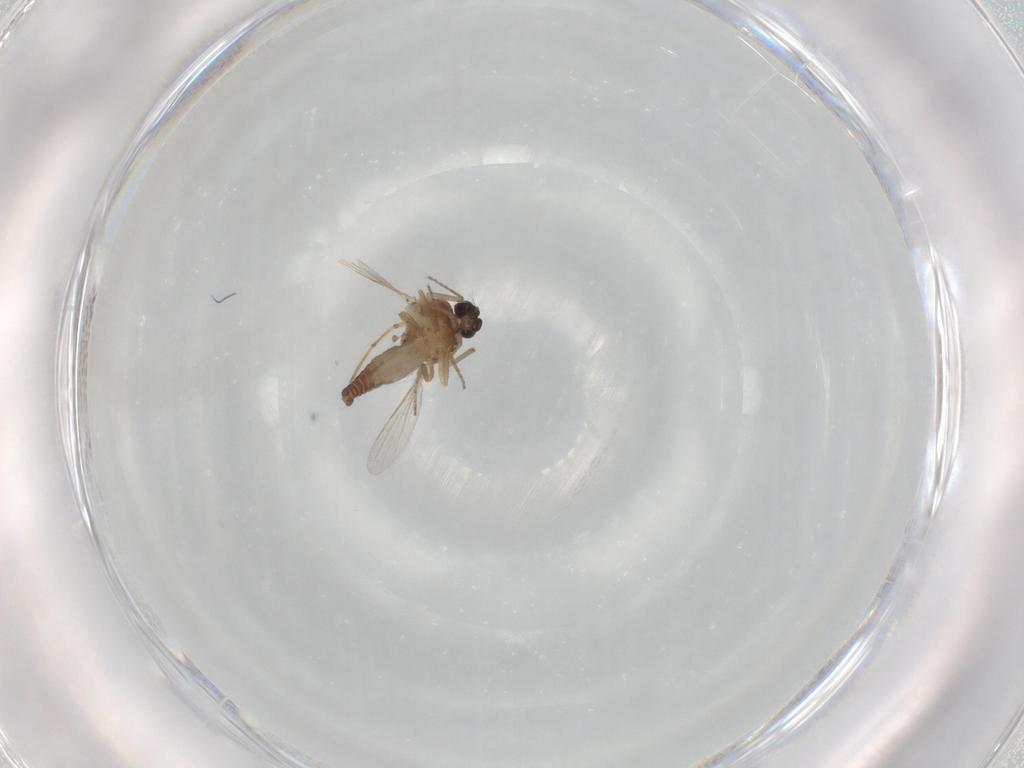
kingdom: Animalia
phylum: Arthropoda
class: Insecta
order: Diptera
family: Ceratopogonidae
